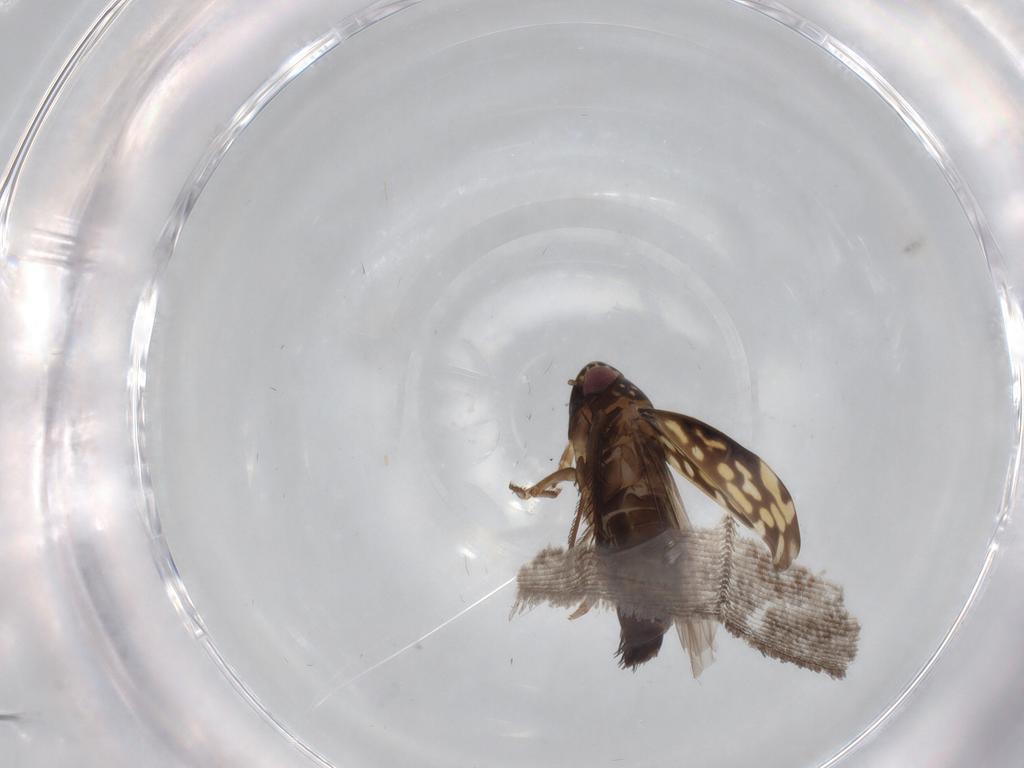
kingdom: Animalia
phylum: Arthropoda
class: Insecta
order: Hemiptera
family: Cicadellidae
